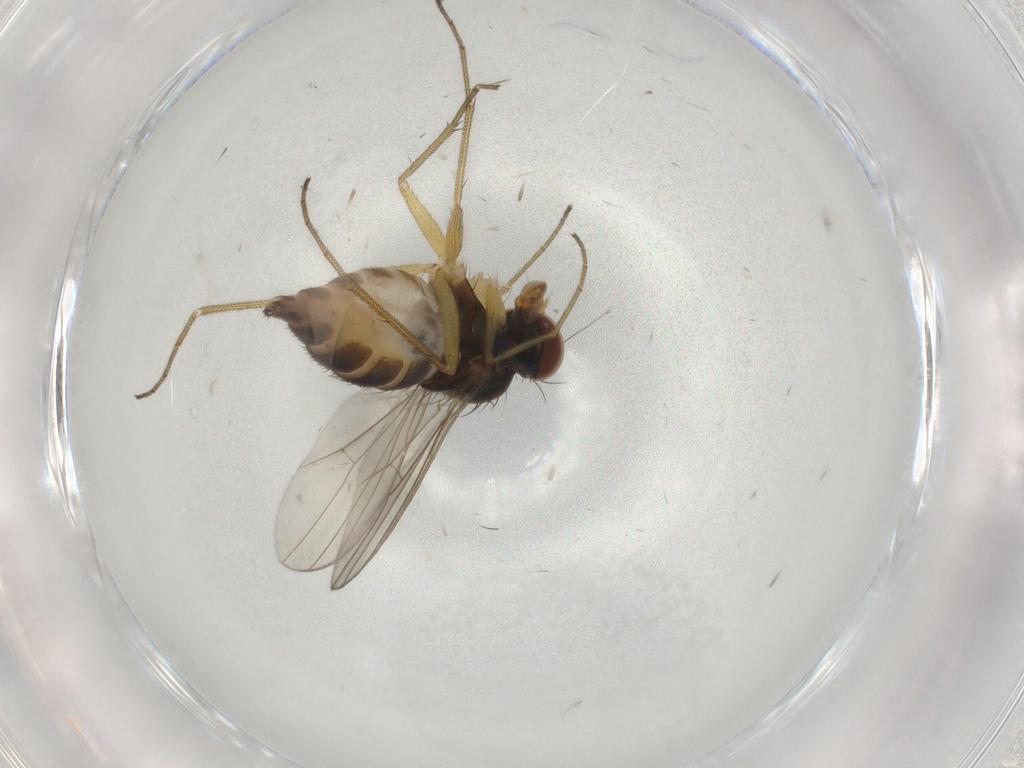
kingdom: Animalia
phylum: Arthropoda
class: Insecta
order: Diptera
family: Dolichopodidae
